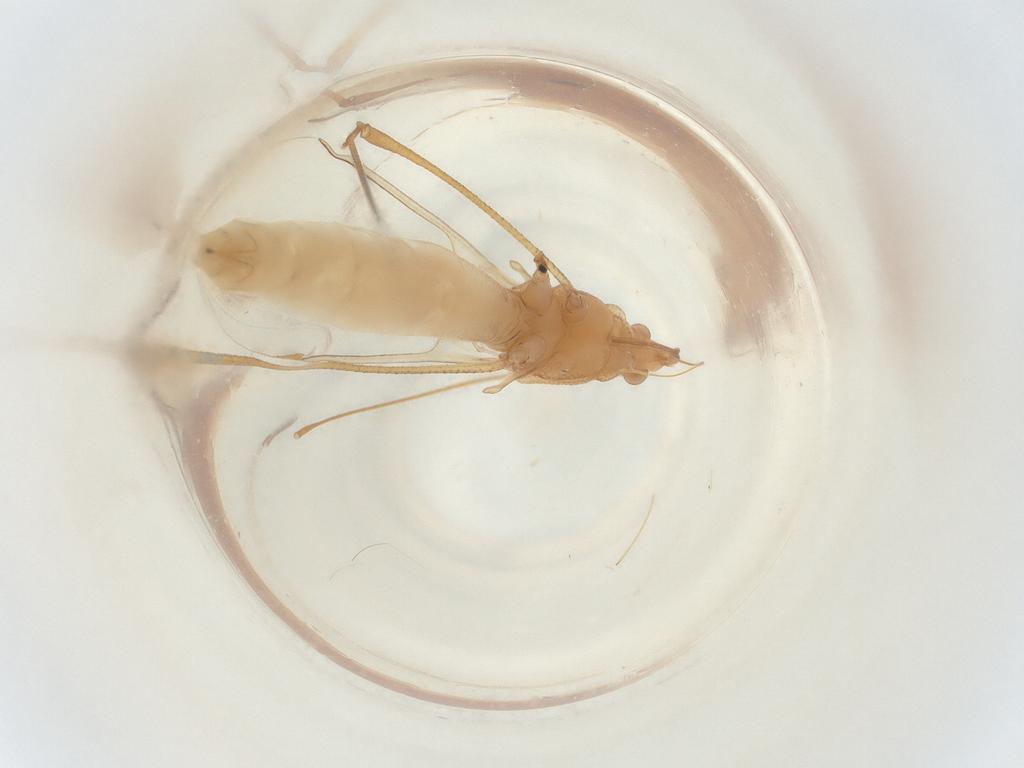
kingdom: Animalia
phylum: Arthropoda
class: Insecta
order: Hemiptera
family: Berytidae
